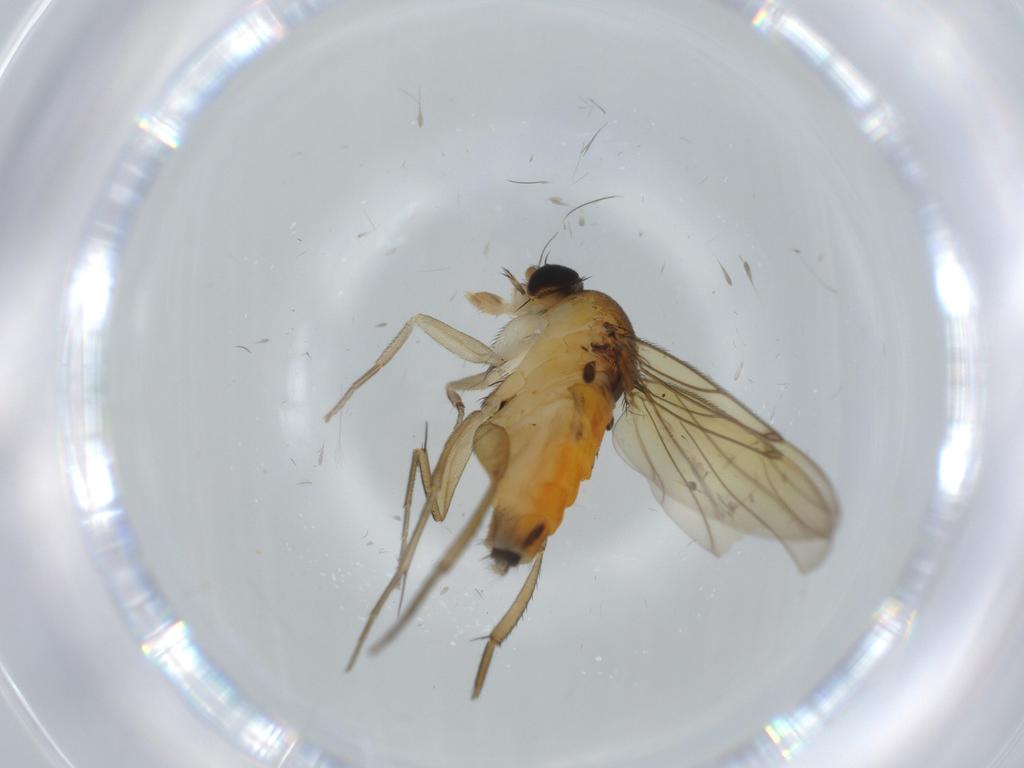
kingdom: Animalia
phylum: Arthropoda
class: Insecta
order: Diptera
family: Phoridae
